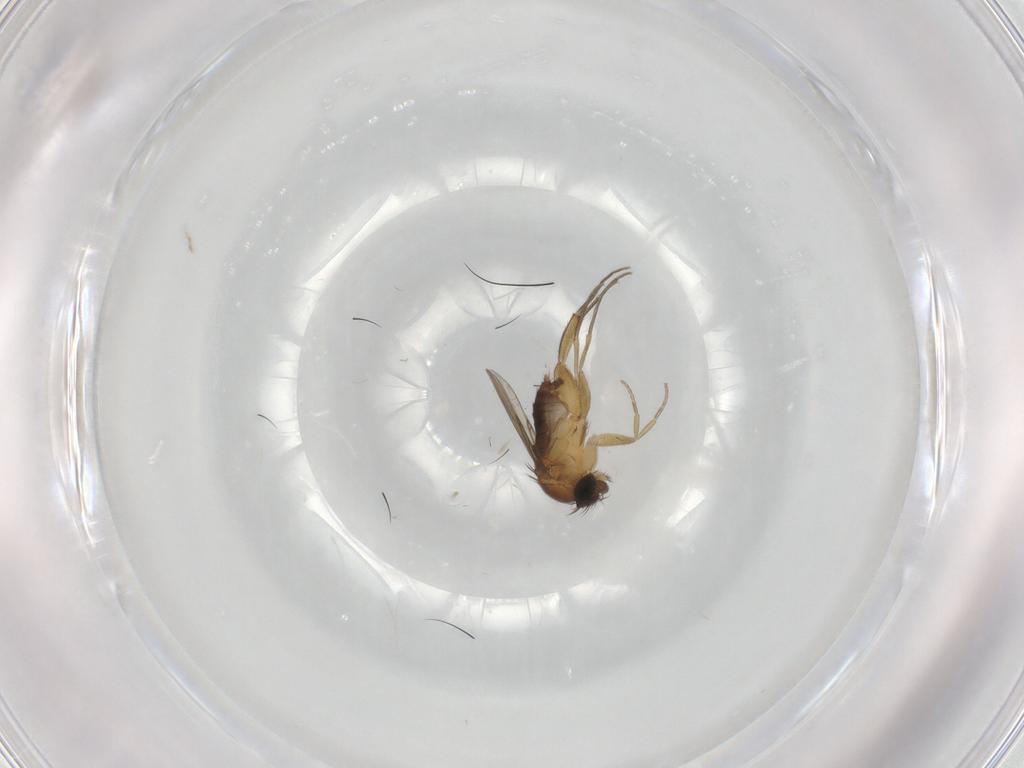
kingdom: Animalia
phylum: Arthropoda
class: Insecta
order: Diptera
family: Phoridae
